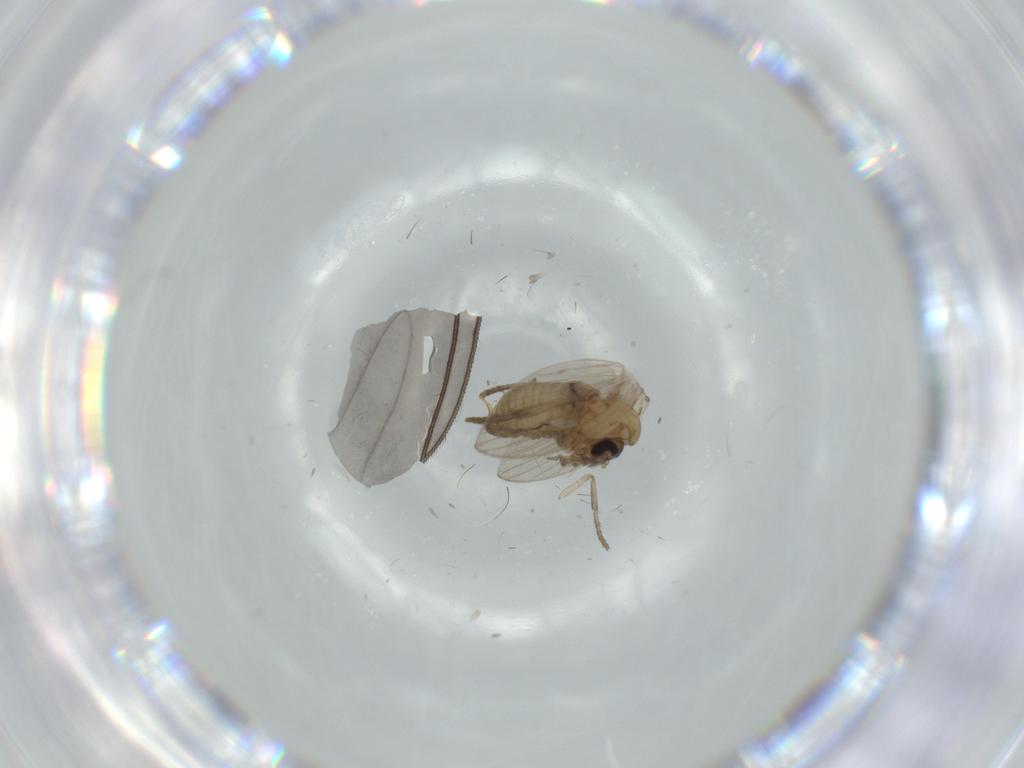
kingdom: Animalia
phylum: Arthropoda
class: Insecta
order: Diptera
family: Psychodidae
